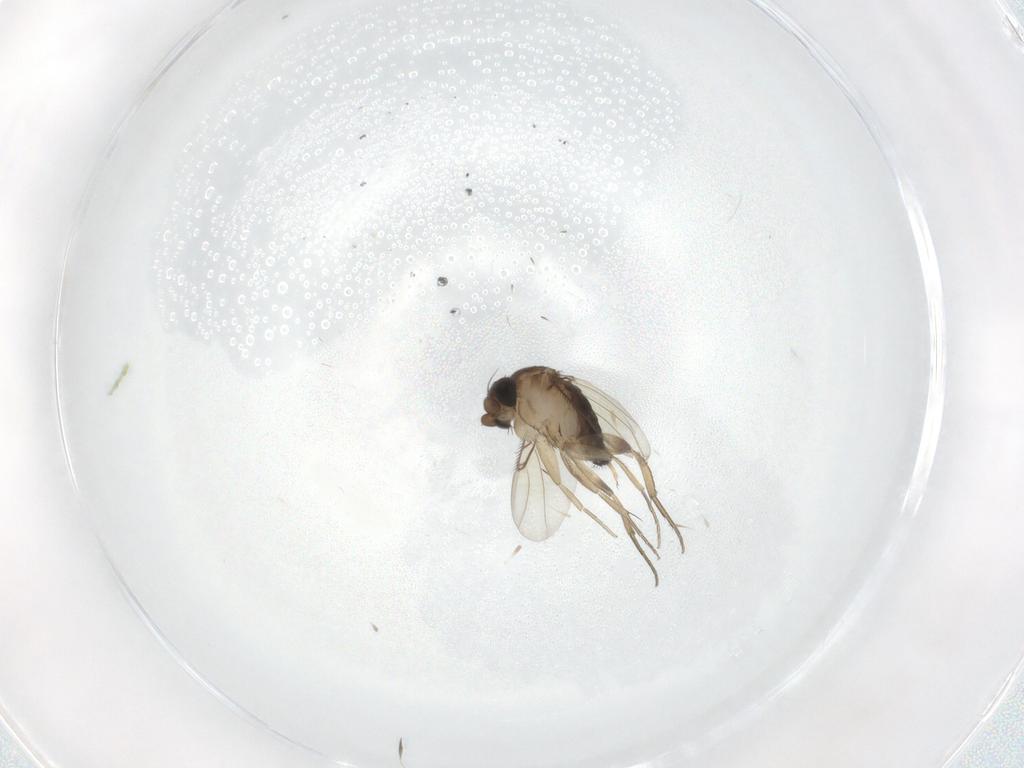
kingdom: Animalia
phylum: Arthropoda
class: Insecta
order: Diptera
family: Phoridae
